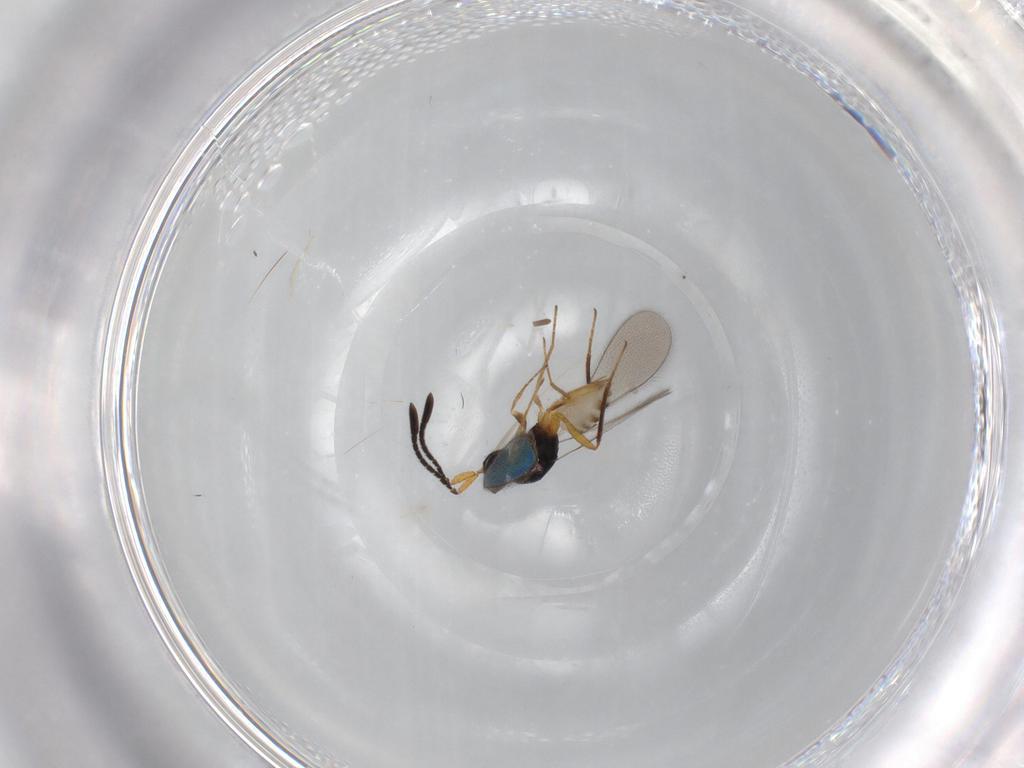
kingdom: Animalia
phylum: Arthropoda
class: Insecta
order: Hymenoptera
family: Mymaridae
